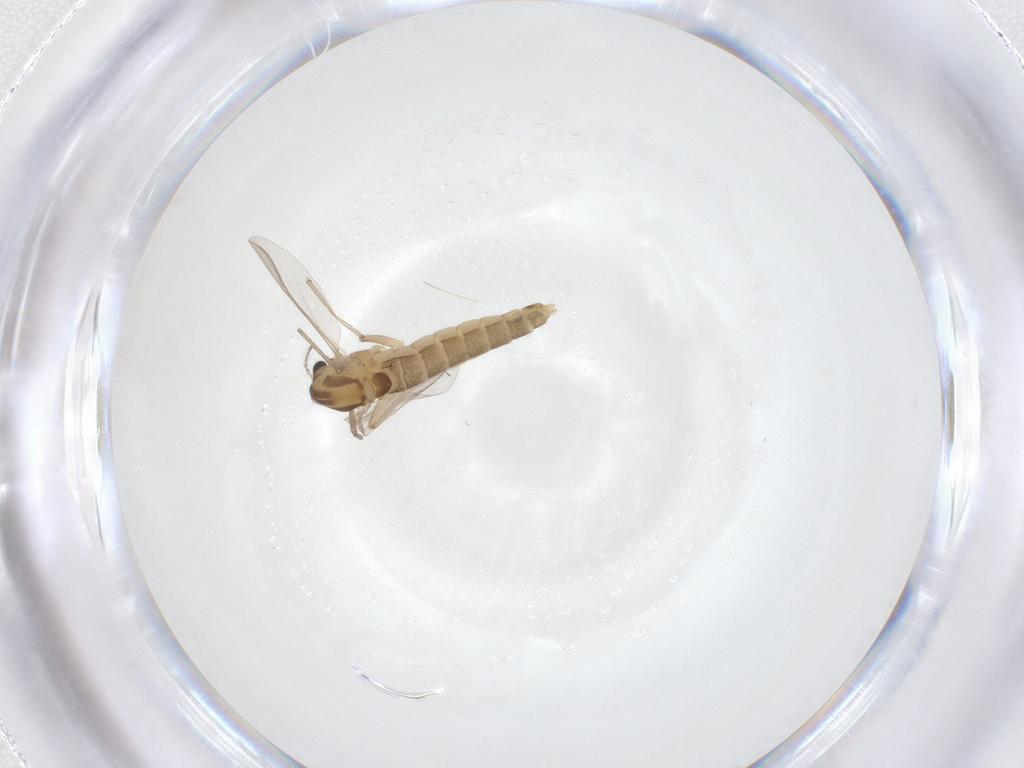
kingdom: Animalia
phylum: Arthropoda
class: Insecta
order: Diptera
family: Chironomidae
